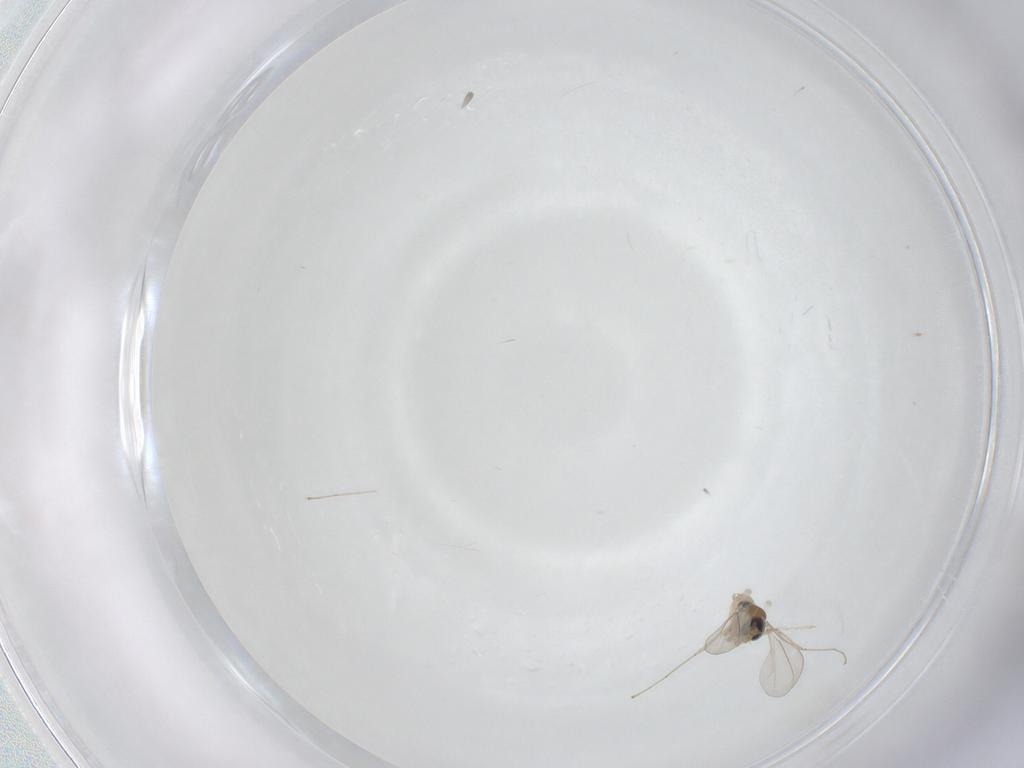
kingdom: Animalia
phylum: Arthropoda
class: Insecta
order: Diptera
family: Cecidomyiidae
